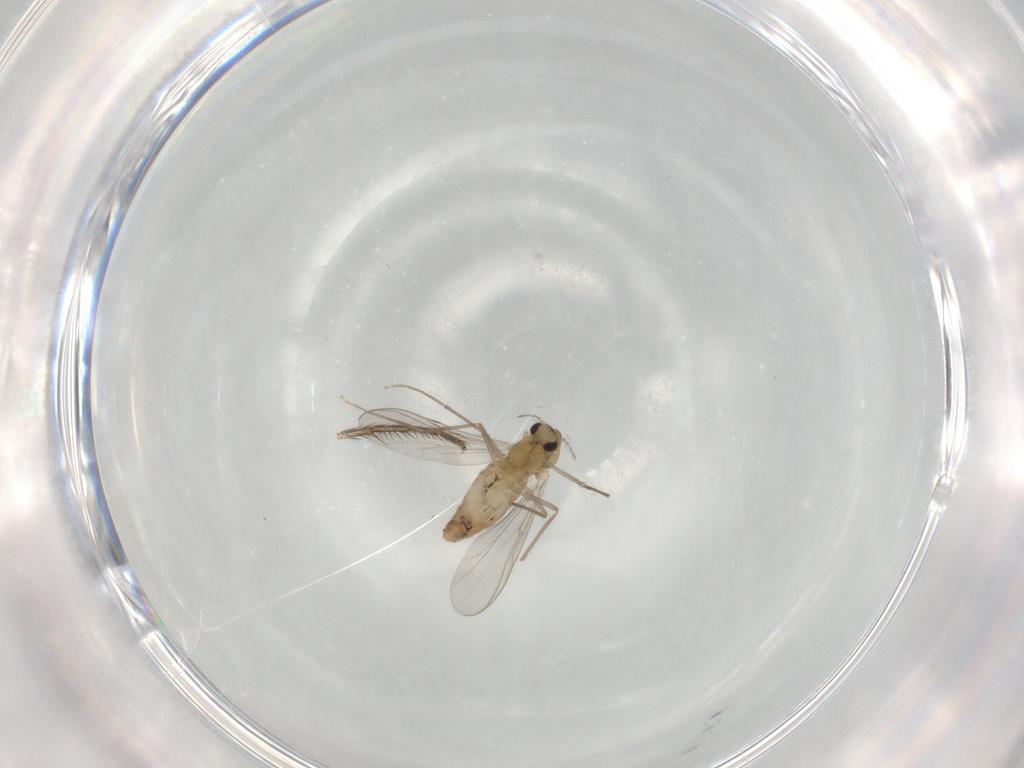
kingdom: Animalia
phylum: Arthropoda
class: Insecta
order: Diptera
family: Chironomidae
